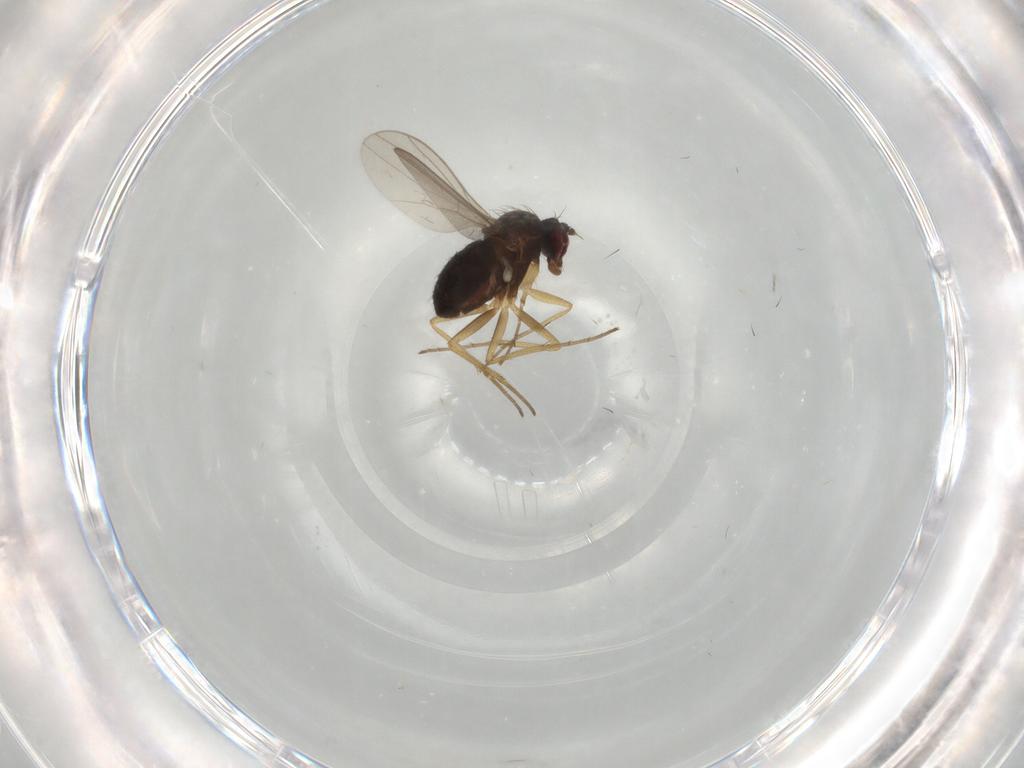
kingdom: Animalia
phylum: Arthropoda
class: Insecta
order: Diptera
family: Dolichopodidae
